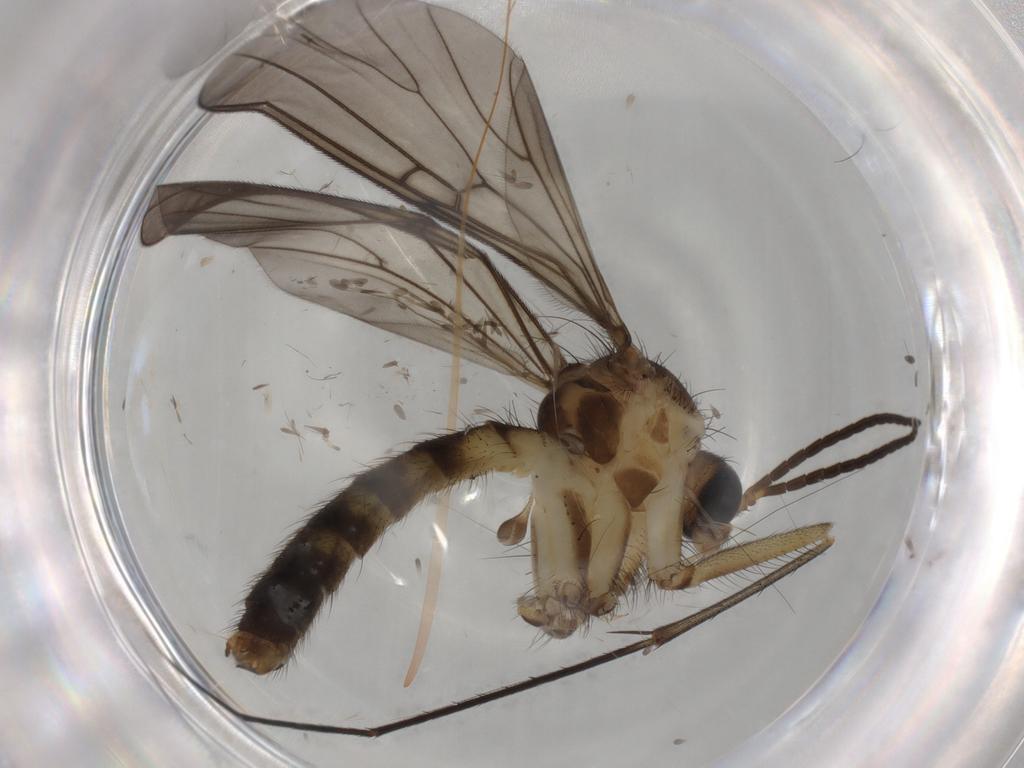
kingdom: Animalia
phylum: Arthropoda
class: Insecta
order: Diptera
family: Mycetophilidae
